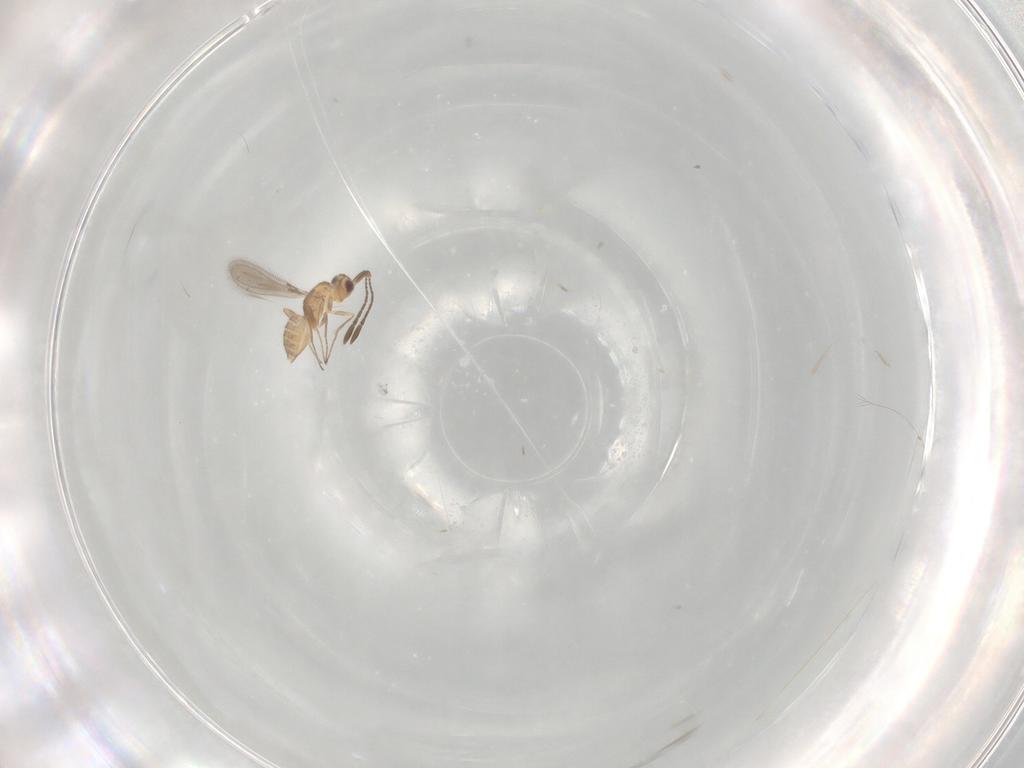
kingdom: Animalia
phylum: Arthropoda
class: Insecta
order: Hymenoptera
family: Mymaridae
